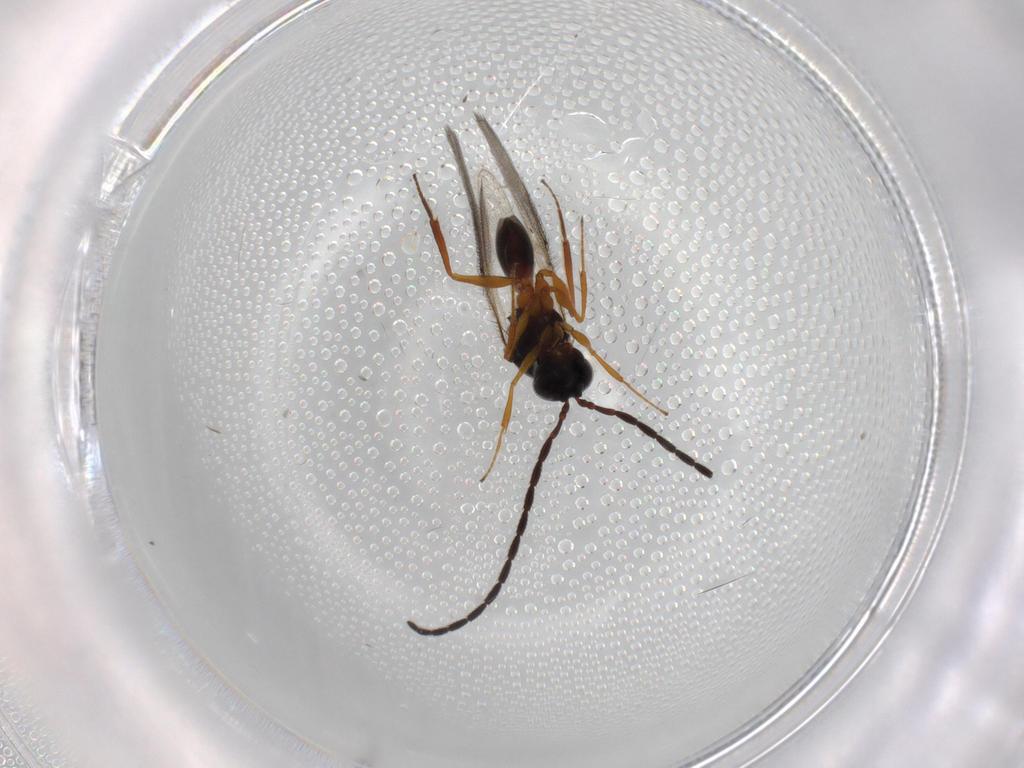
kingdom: Animalia
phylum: Arthropoda
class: Insecta
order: Hymenoptera
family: Figitidae
